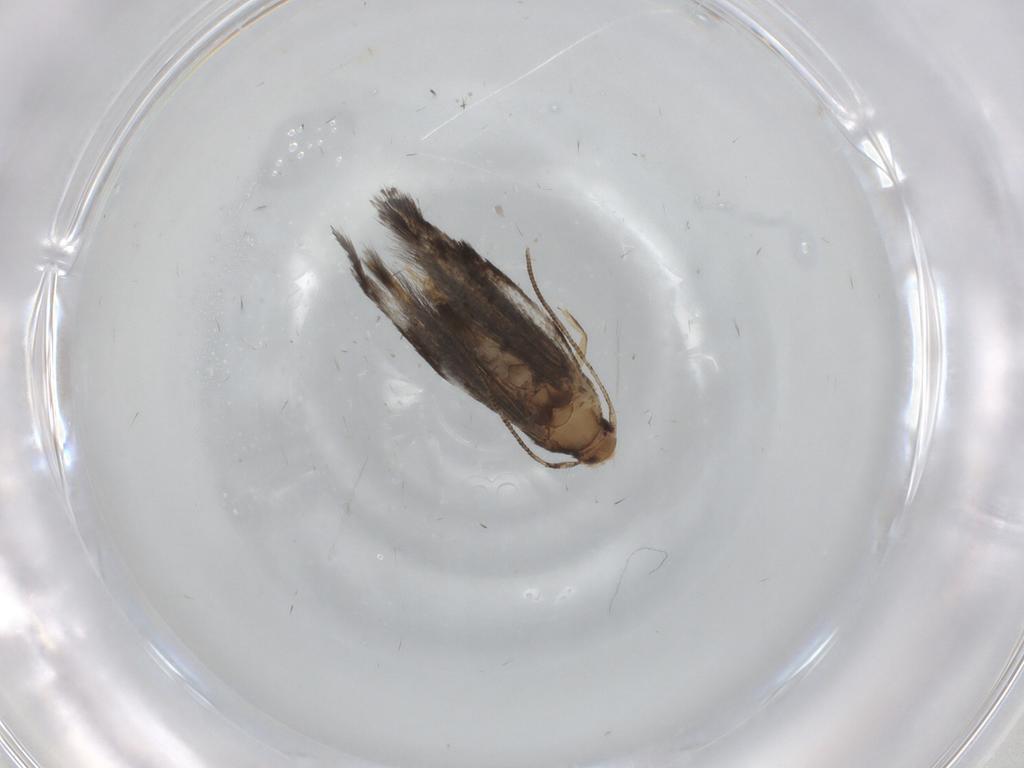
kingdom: Animalia
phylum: Arthropoda
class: Insecta
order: Lepidoptera
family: Gelechiidae
